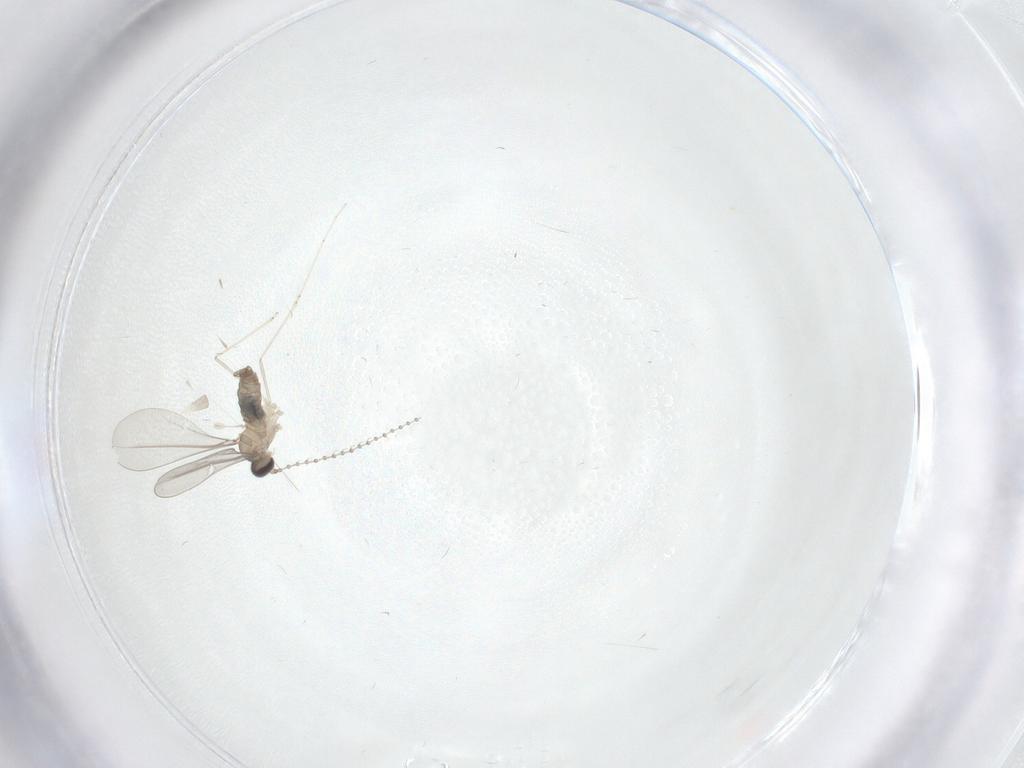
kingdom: Animalia
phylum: Arthropoda
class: Insecta
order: Diptera
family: Cecidomyiidae
